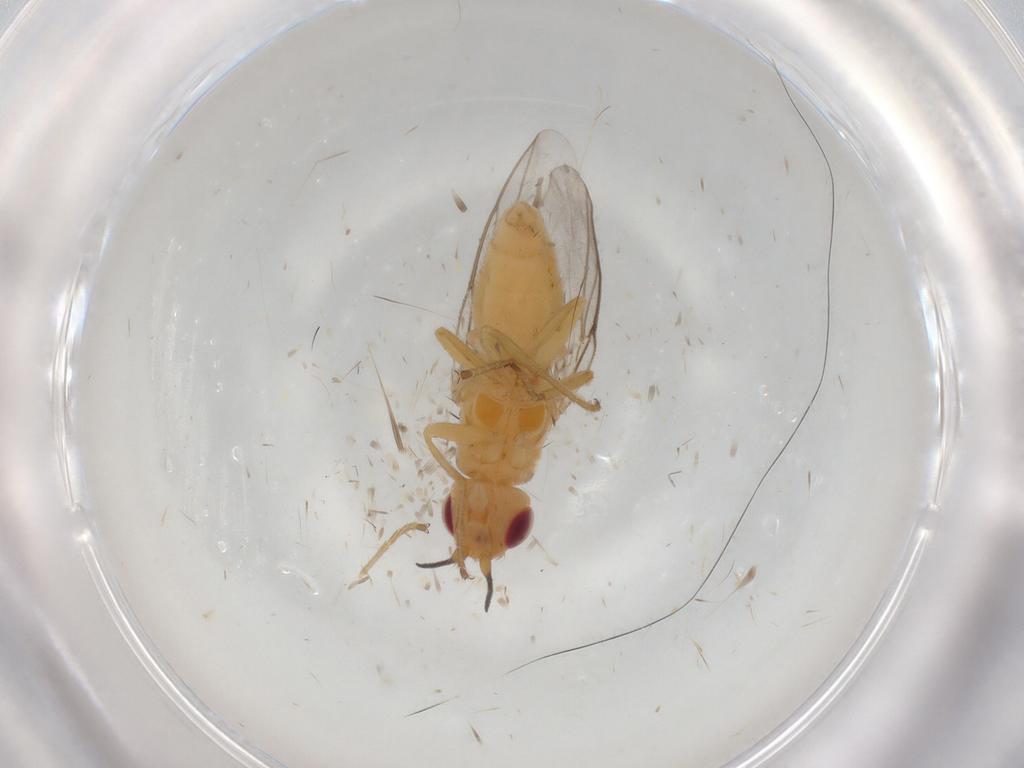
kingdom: Animalia
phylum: Arthropoda
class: Insecta
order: Diptera
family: Chloropidae
